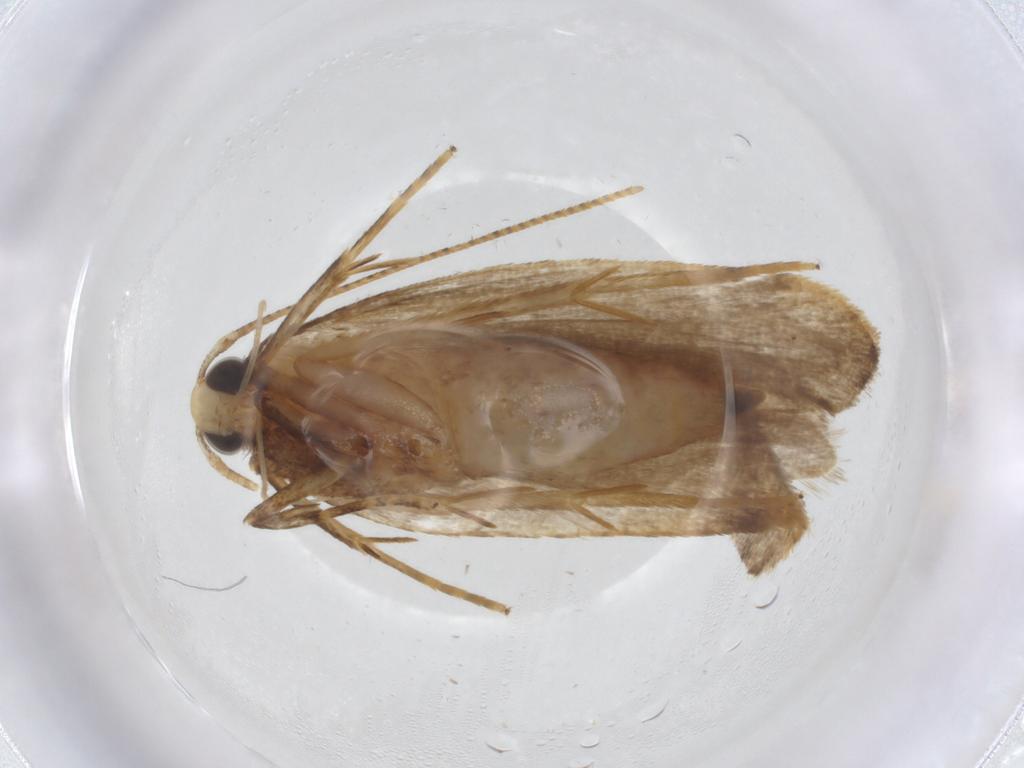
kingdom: Animalia
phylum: Arthropoda
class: Insecta
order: Lepidoptera
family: Autostichidae
